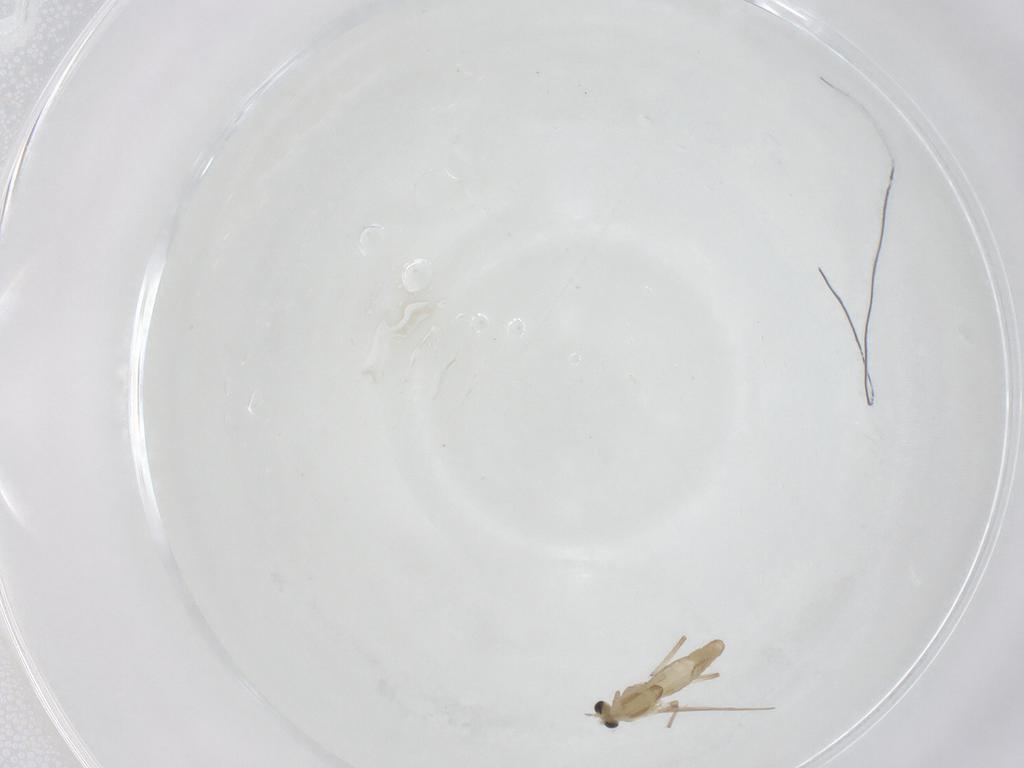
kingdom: Animalia
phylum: Arthropoda
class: Insecta
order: Diptera
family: Chironomidae
